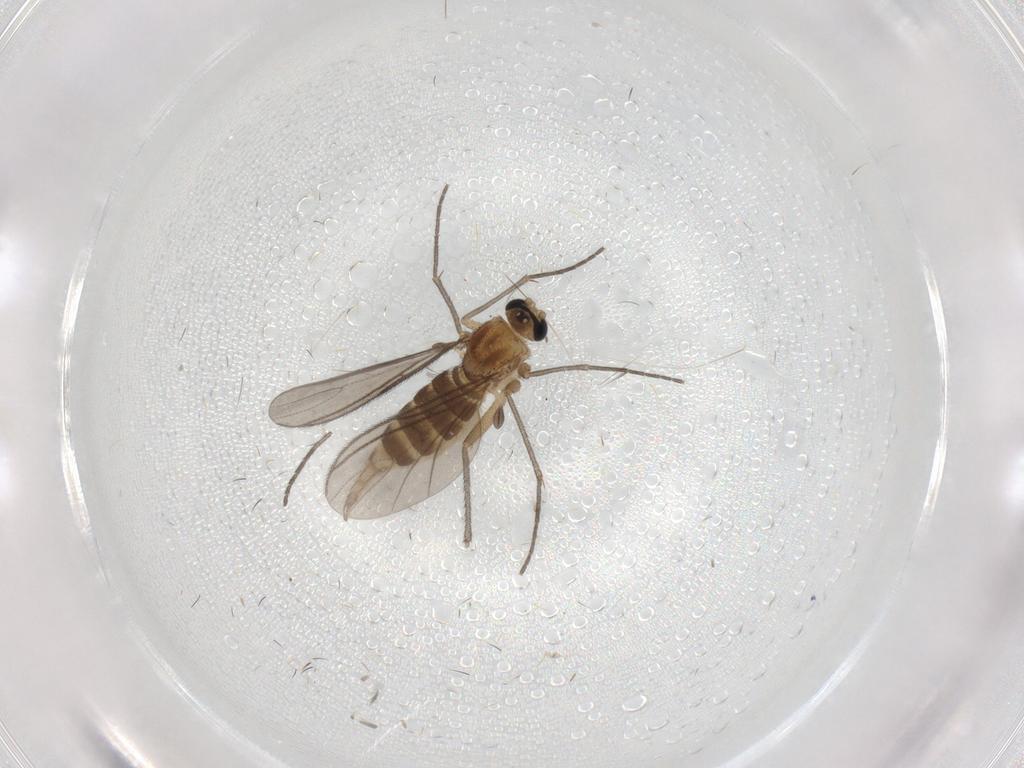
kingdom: Animalia
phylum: Arthropoda
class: Insecta
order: Diptera
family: Sciaridae
